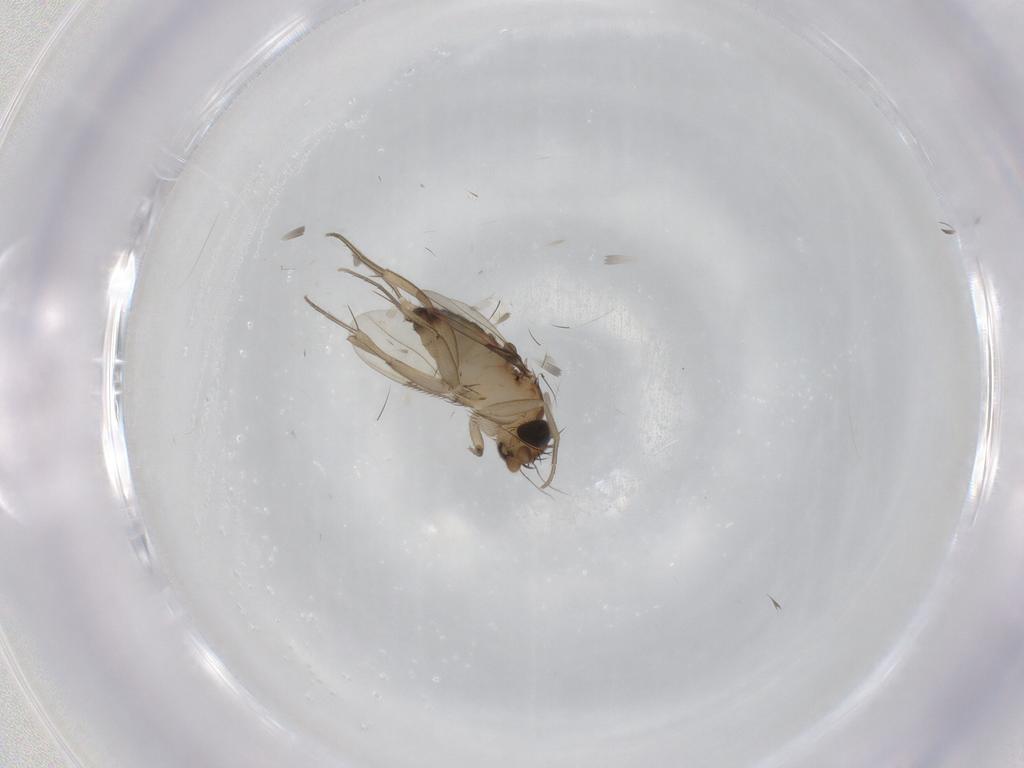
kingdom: Animalia
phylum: Arthropoda
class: Insecta
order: Diptera
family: Phoridae
